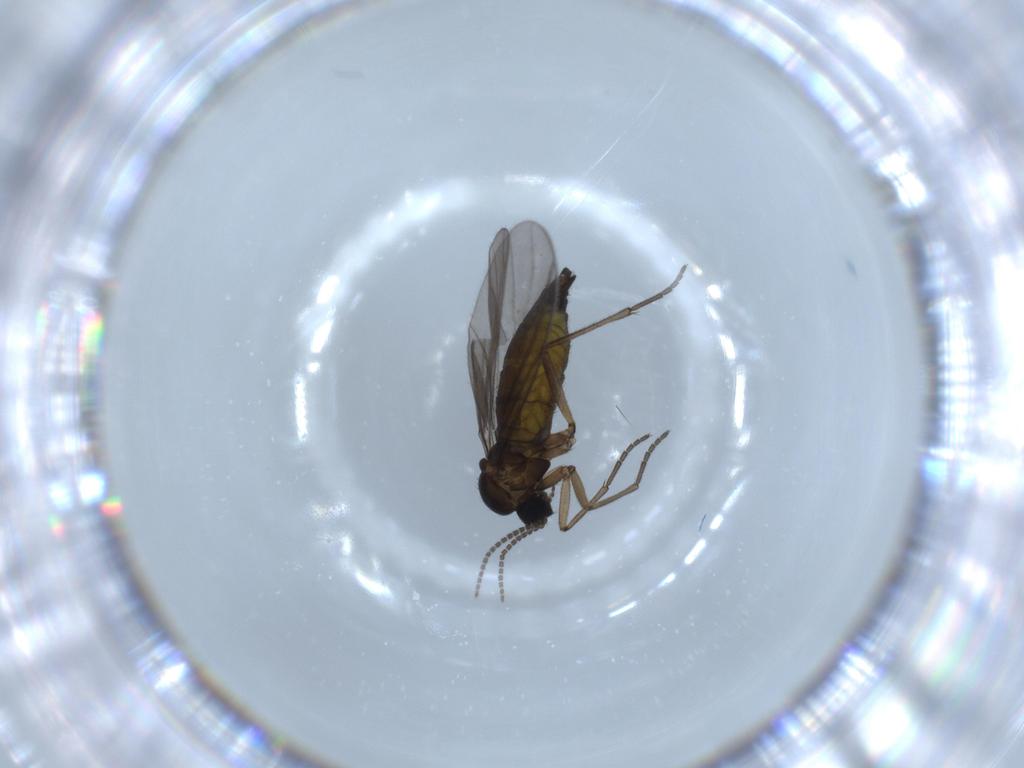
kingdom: Animalia
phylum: Arthropoda
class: Insecta
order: Diptera
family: Sciaridae
